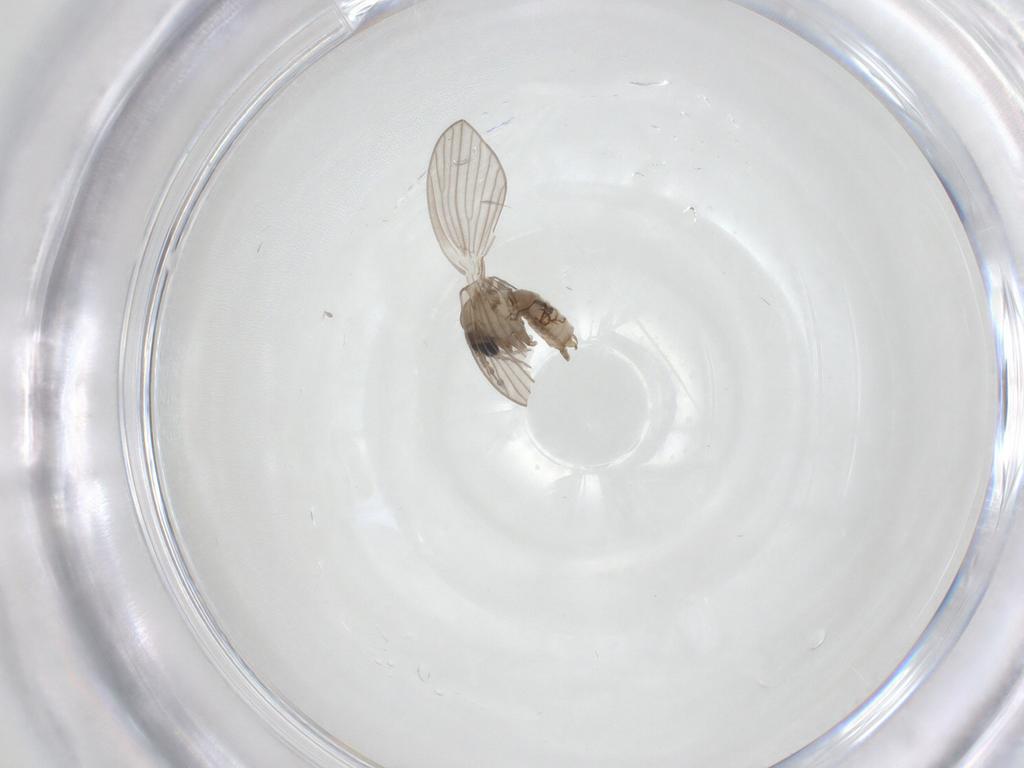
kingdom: Animalia
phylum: Arthropoda
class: Insecta
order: Diptera
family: Psychodidae
